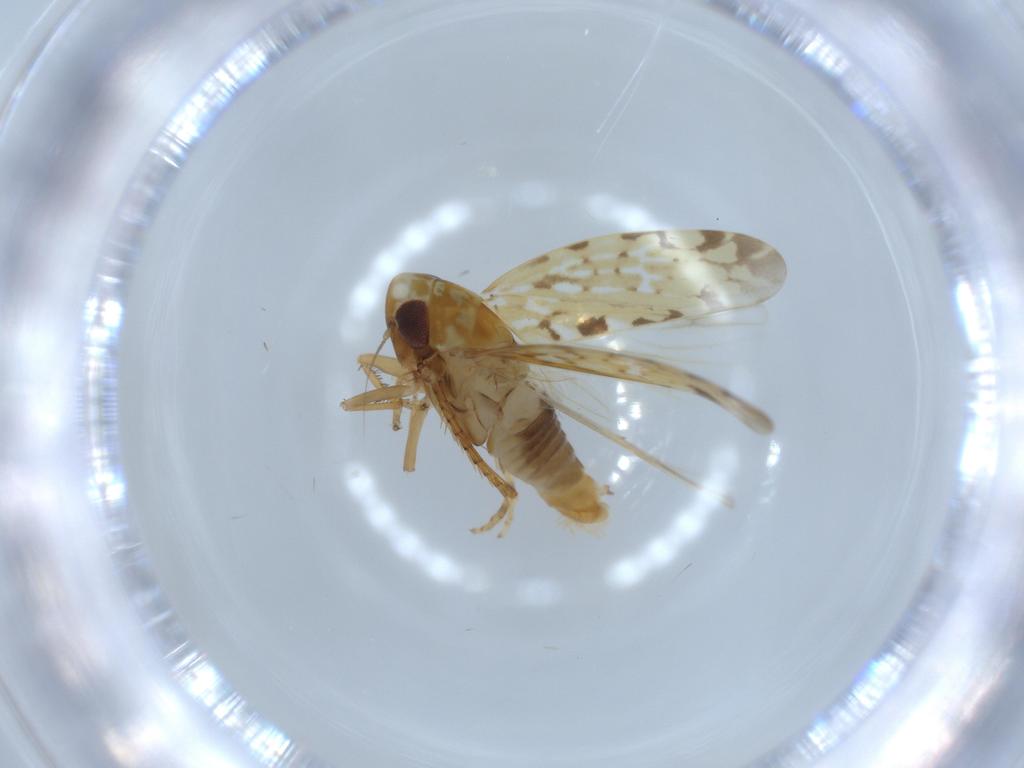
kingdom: Animalia
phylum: Arthropoda
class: Insecta
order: Hemiptera
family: Cicadellidae
